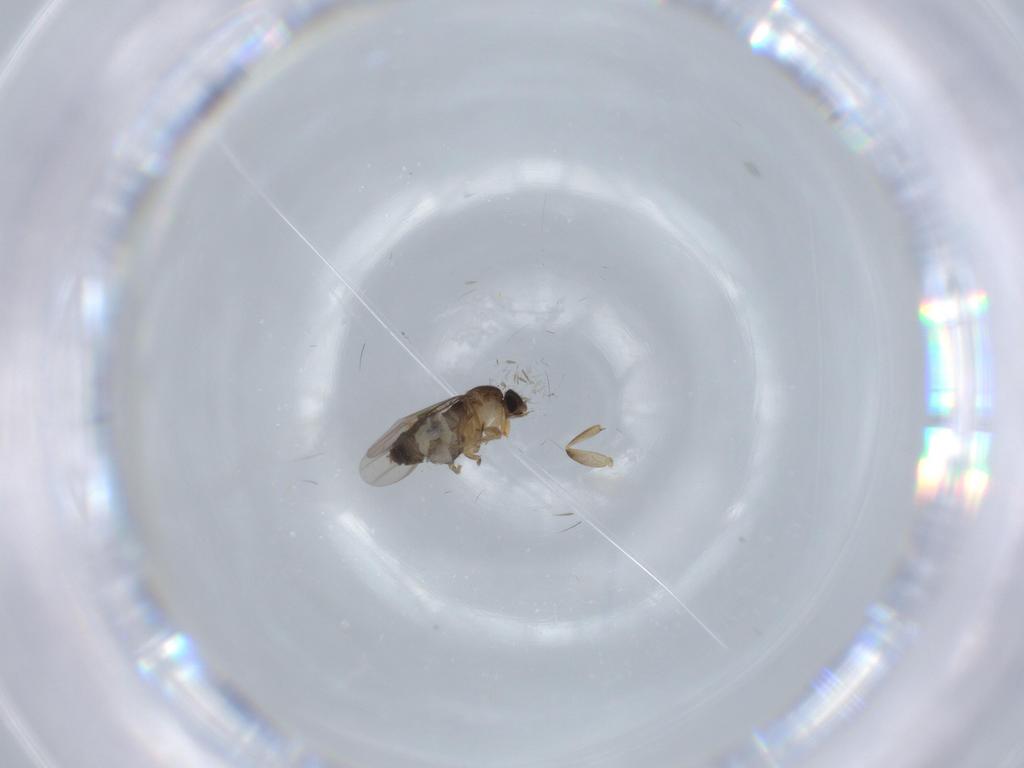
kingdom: Animalia
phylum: Arthropoda
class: Insecta
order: Diptera
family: Phoridae
